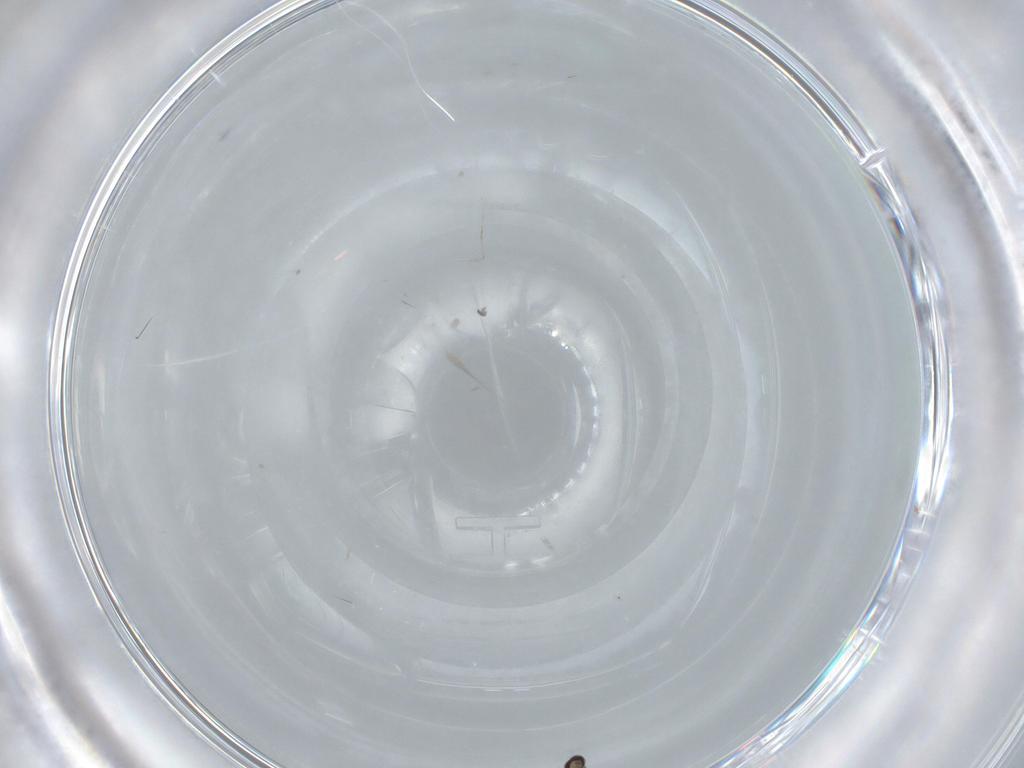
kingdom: Animalia
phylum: Arthropoda
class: Insecta
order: Diptera
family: Cecidomyiidae
